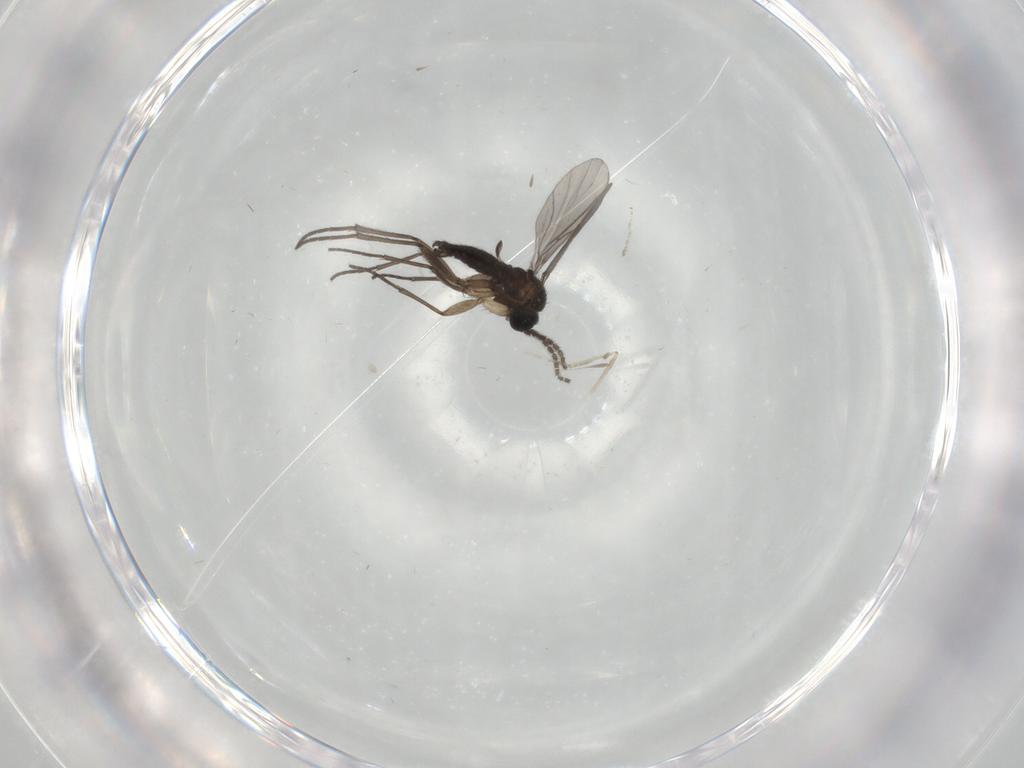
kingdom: Animalia
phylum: Arthropoda
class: Insecta
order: Diptera
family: Sciaridae
